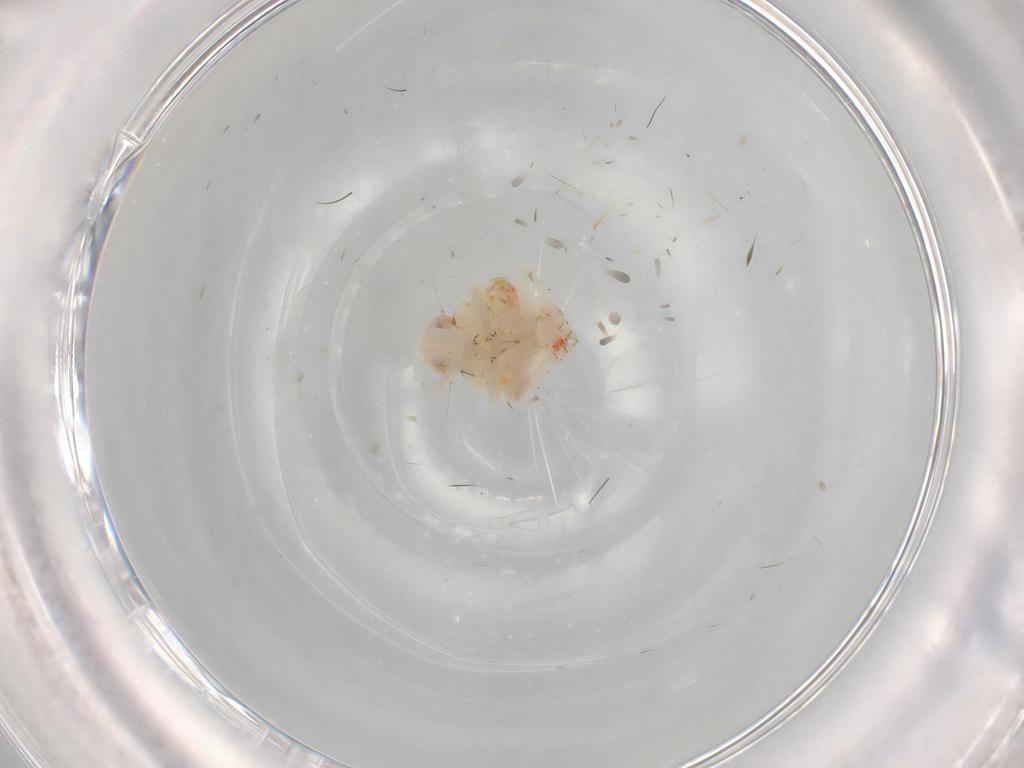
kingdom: Animalia
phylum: Arthropoda
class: Insecta
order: Hemiptera
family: Nogodinidae
